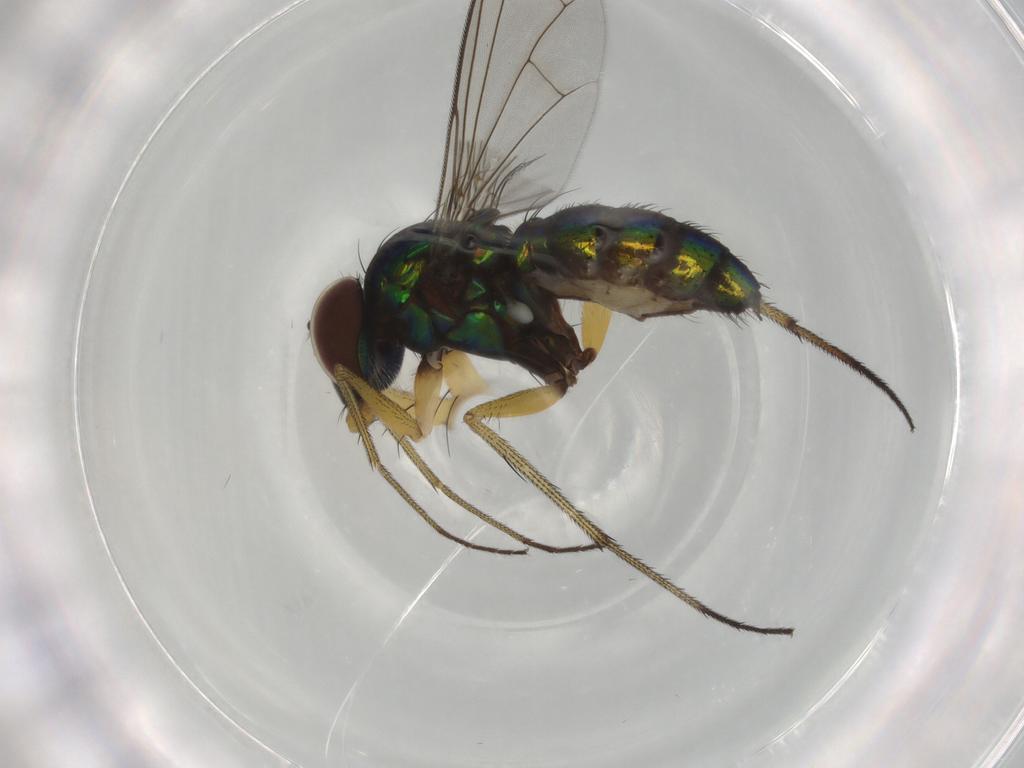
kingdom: Animalia
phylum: Arthropoda
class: Insecta
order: Diptera
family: Dolichopodidae
